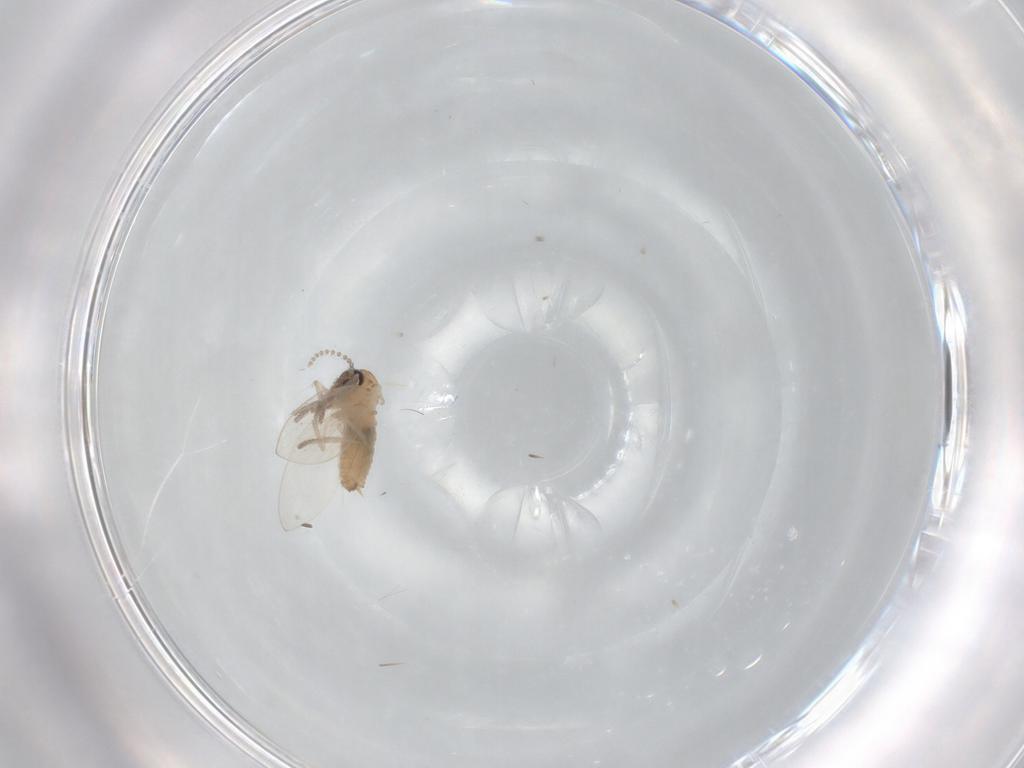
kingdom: Animalia
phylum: Arthropoda
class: Insecta
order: Diptera
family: Psychodidae
